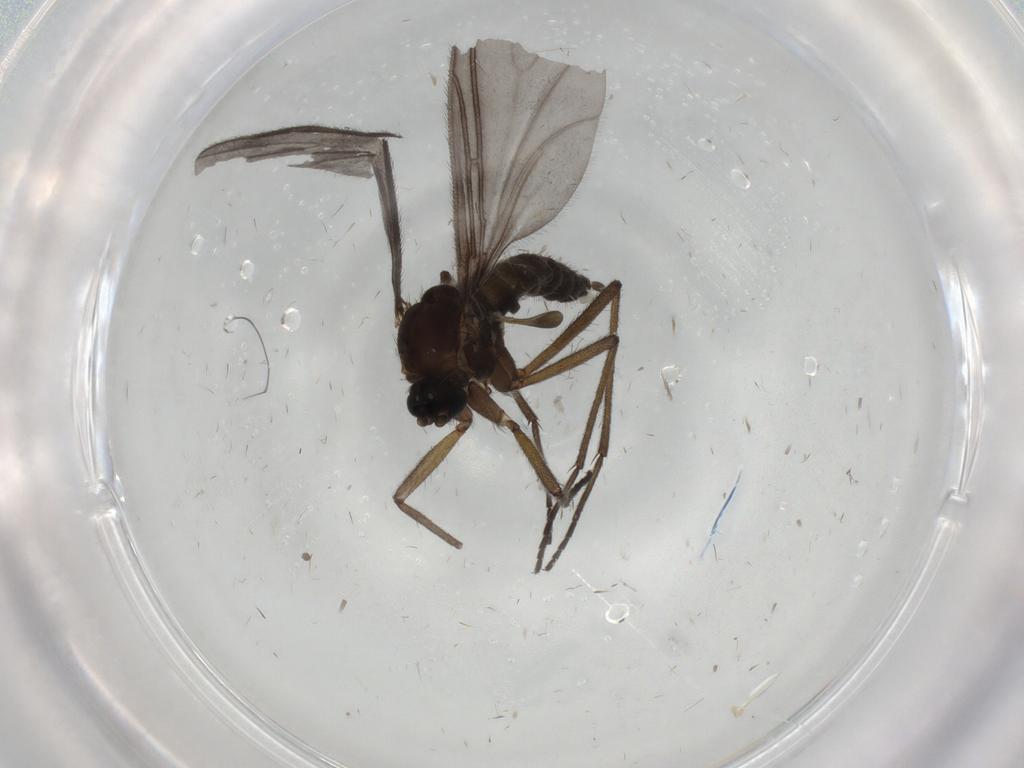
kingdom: Animalia
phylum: Arthropoda
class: Insecta
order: Diptera
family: Sciaridae
